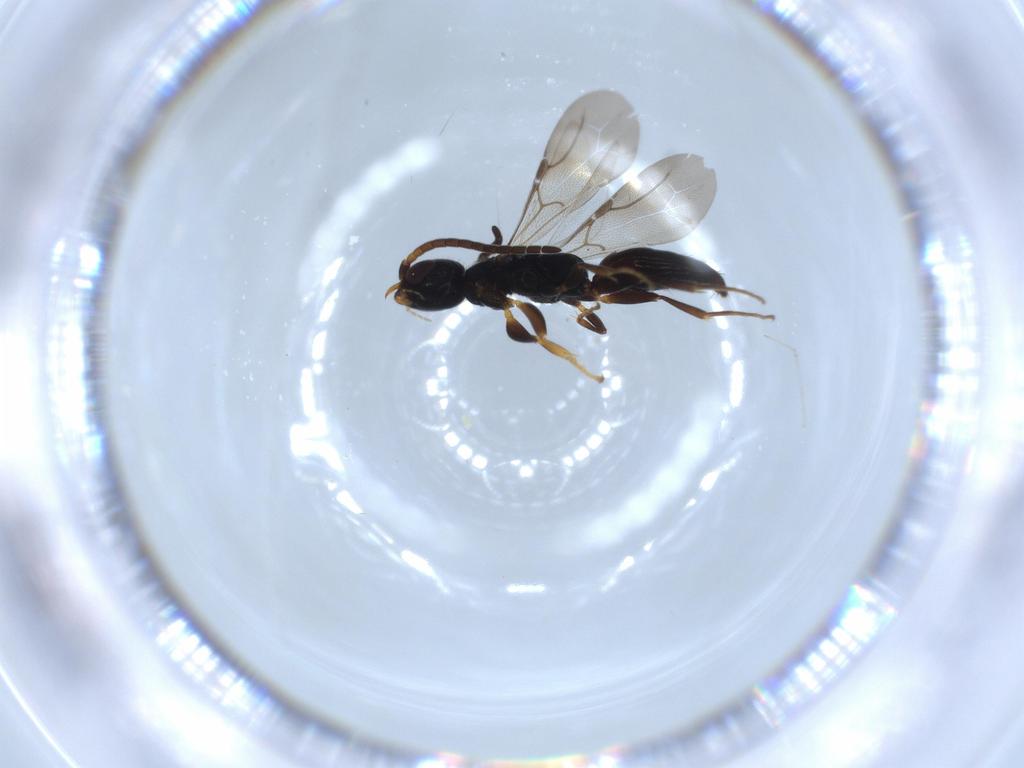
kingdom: Animalia
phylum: Arthropoda
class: Insecta
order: Hymenoptera
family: Bethylidae
